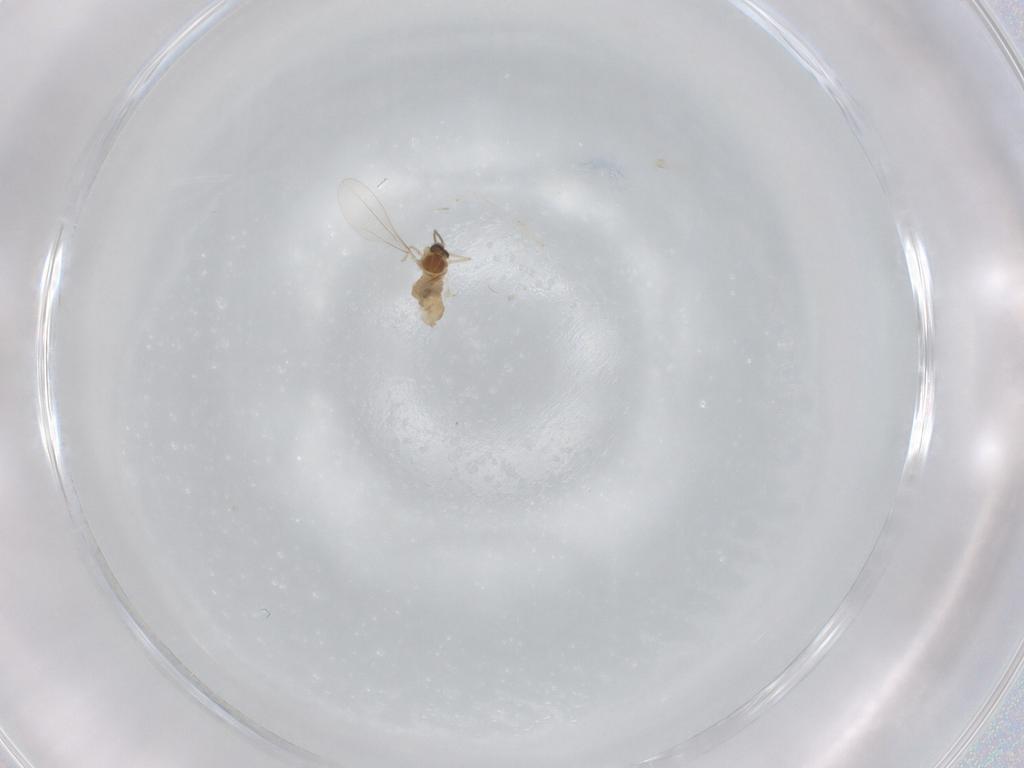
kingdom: Animalia
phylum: Arthropoda
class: Insecta
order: Diptera
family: Cecidomyiidae
